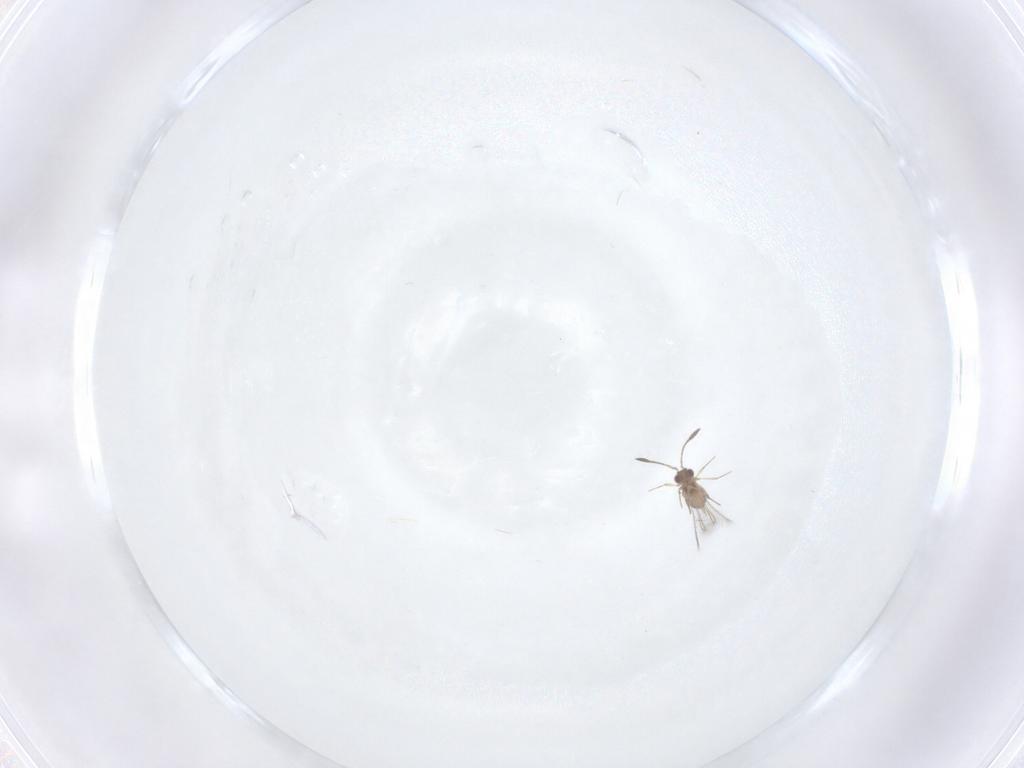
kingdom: Animalia
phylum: Arthropoda
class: Insecta
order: Hymenoptera
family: Mymaridae
